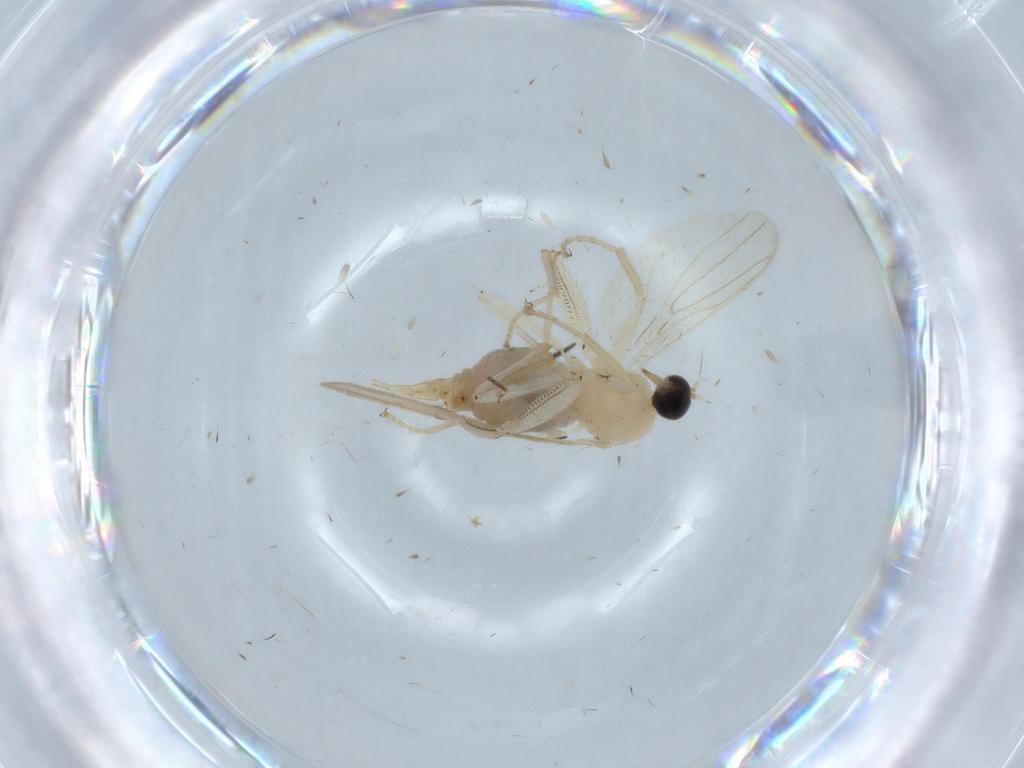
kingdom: Animalia
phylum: Arthropoda
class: Insecta
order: Diptera
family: Hybotidae
